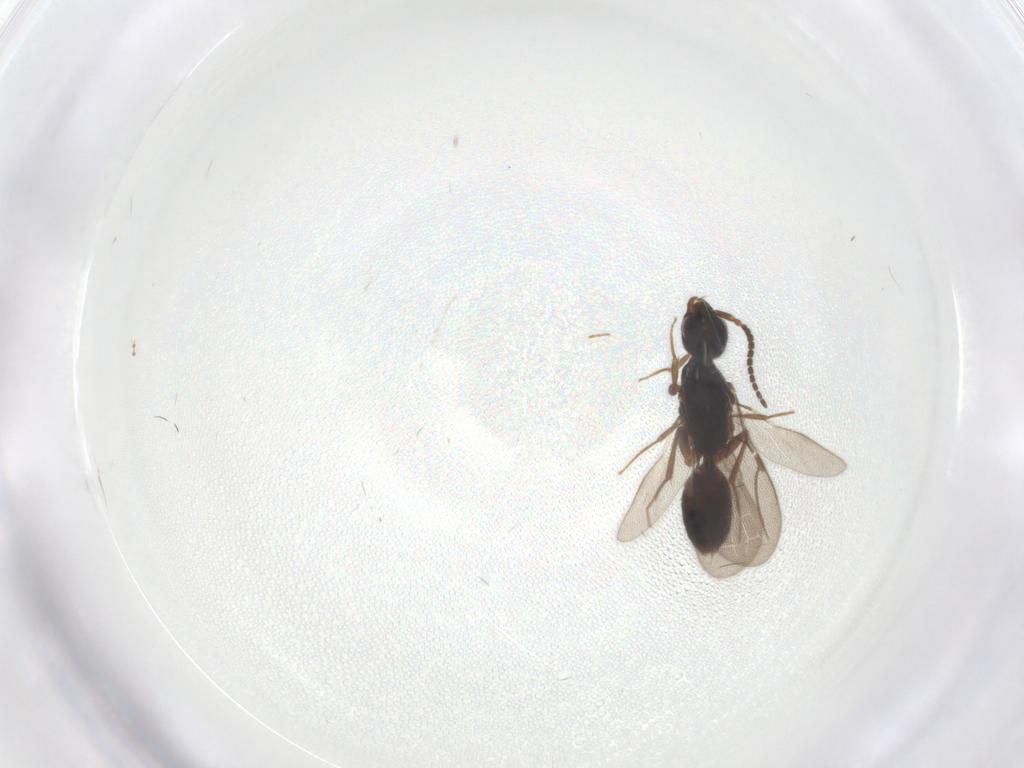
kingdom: Animalia
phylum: Arthropoda
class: Insecta
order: Hymenoptera
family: Bethylidae
